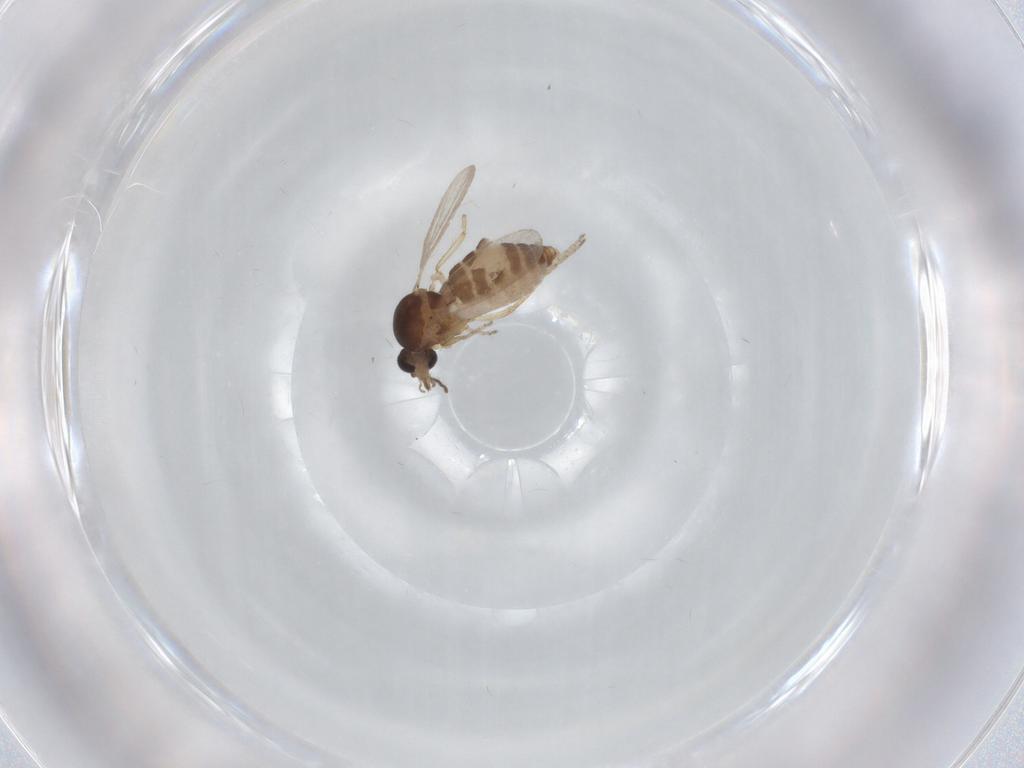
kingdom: Animalia
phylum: Arthropoda
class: Insecta
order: Diptera
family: Ceratopogonidae
